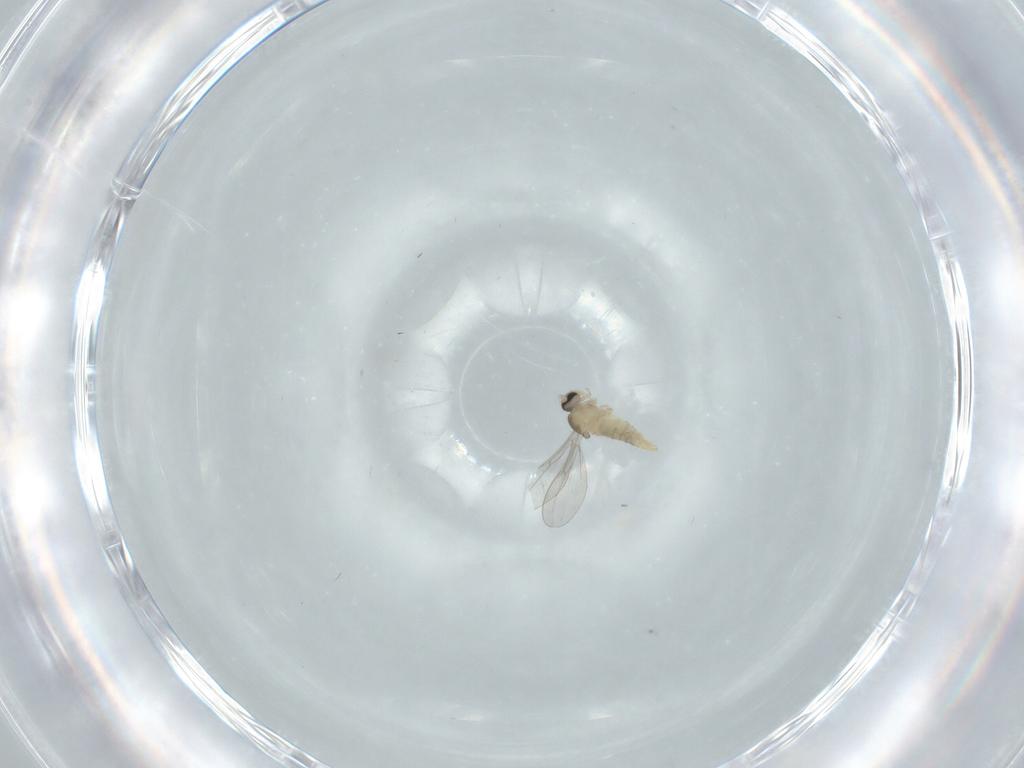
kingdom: Animalia
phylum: Arthropoda
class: Insecta
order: Diptera
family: Cecidomyiidae
